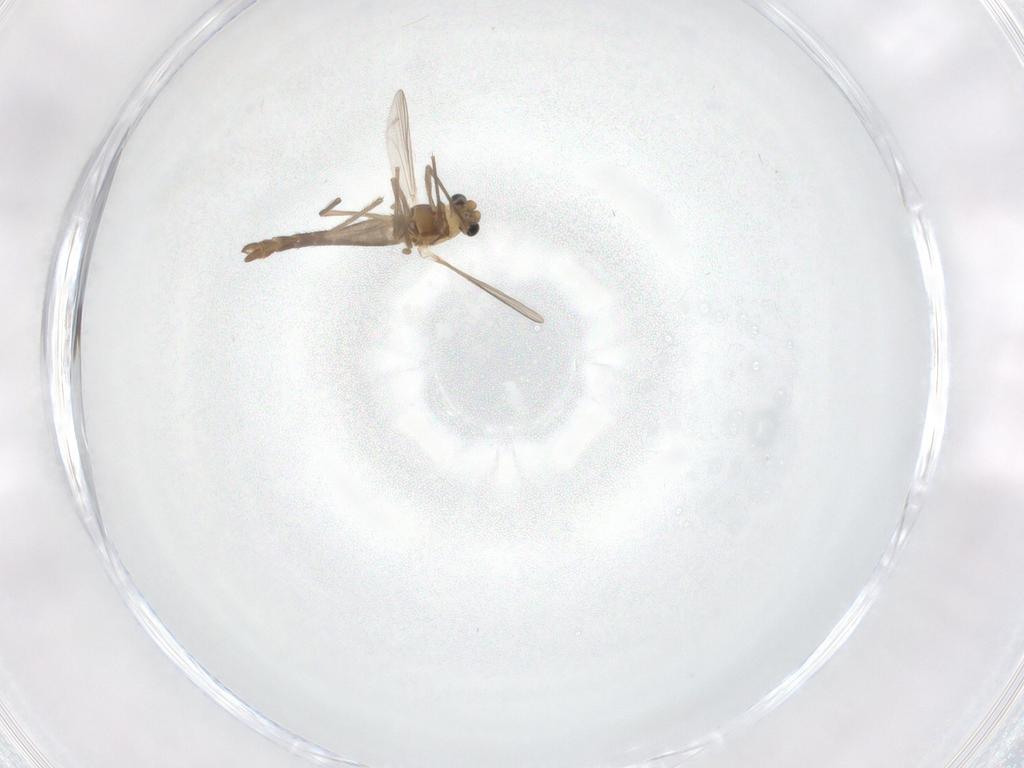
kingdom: Animalia
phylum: Arthropoda
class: Insecta
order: Diptera
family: Chironomidae
